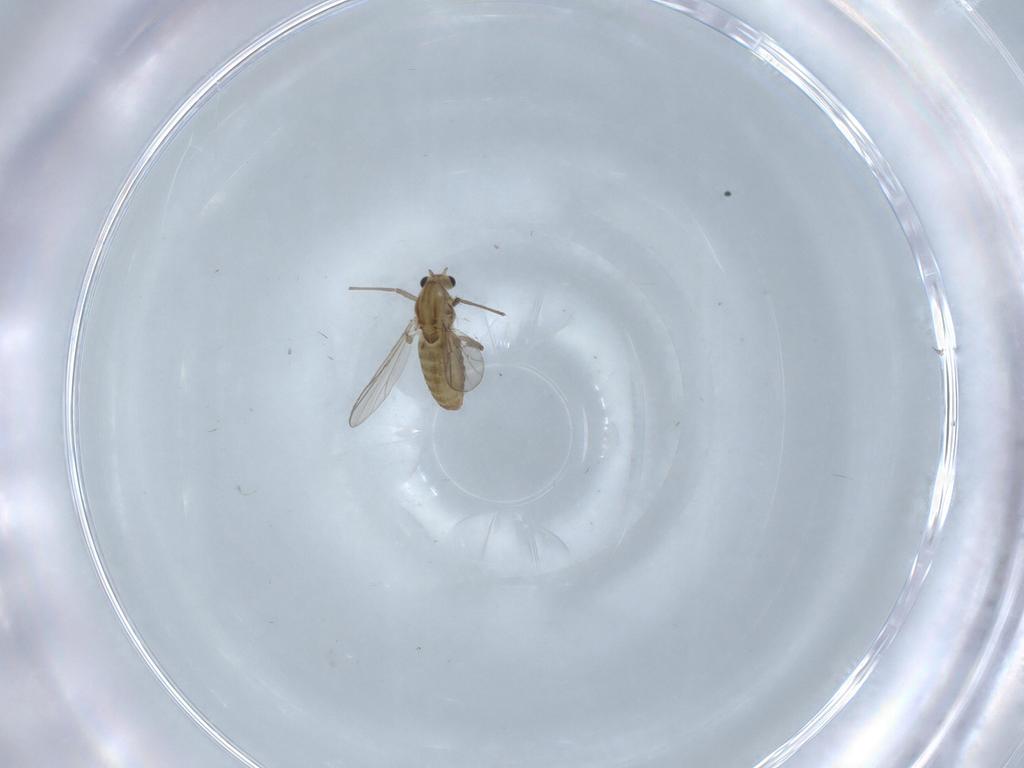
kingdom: Animalia
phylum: Arthropoda
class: Insecta
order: Diptera
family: Chironomidae
